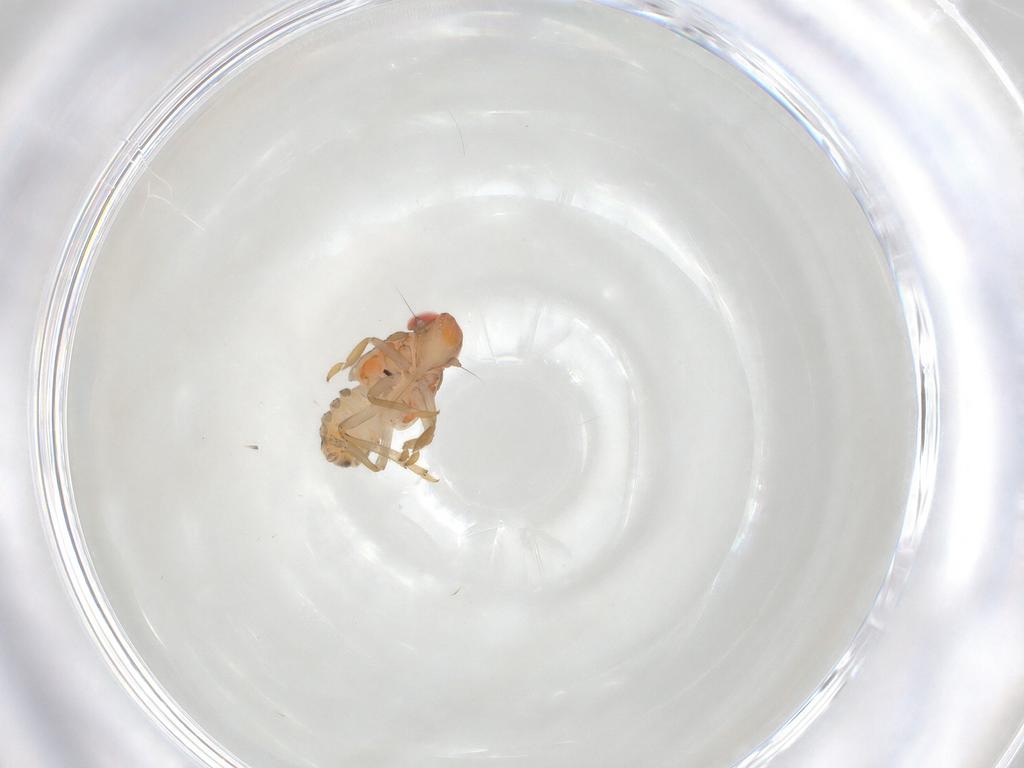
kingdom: Animalia
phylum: Arthropoda
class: Insecta
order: Hemiptera
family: Fulgoroidea_incertae_sedis
